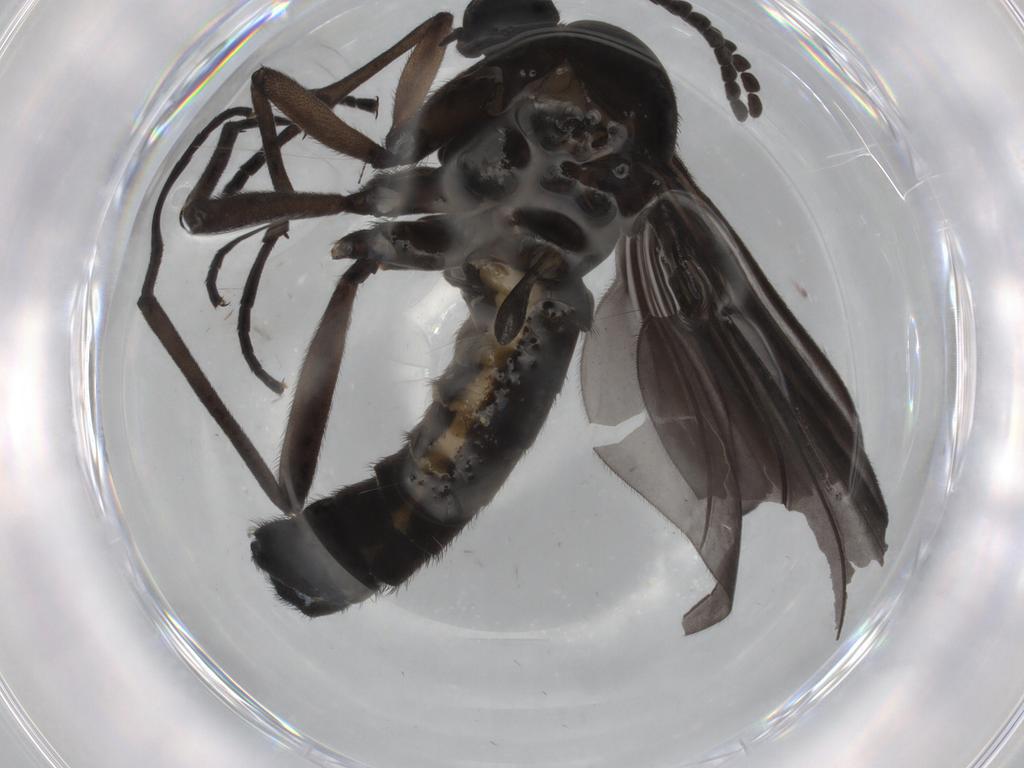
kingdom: Animalia
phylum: Arthropoda
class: Insecta
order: Diptera
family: Sciaridae
